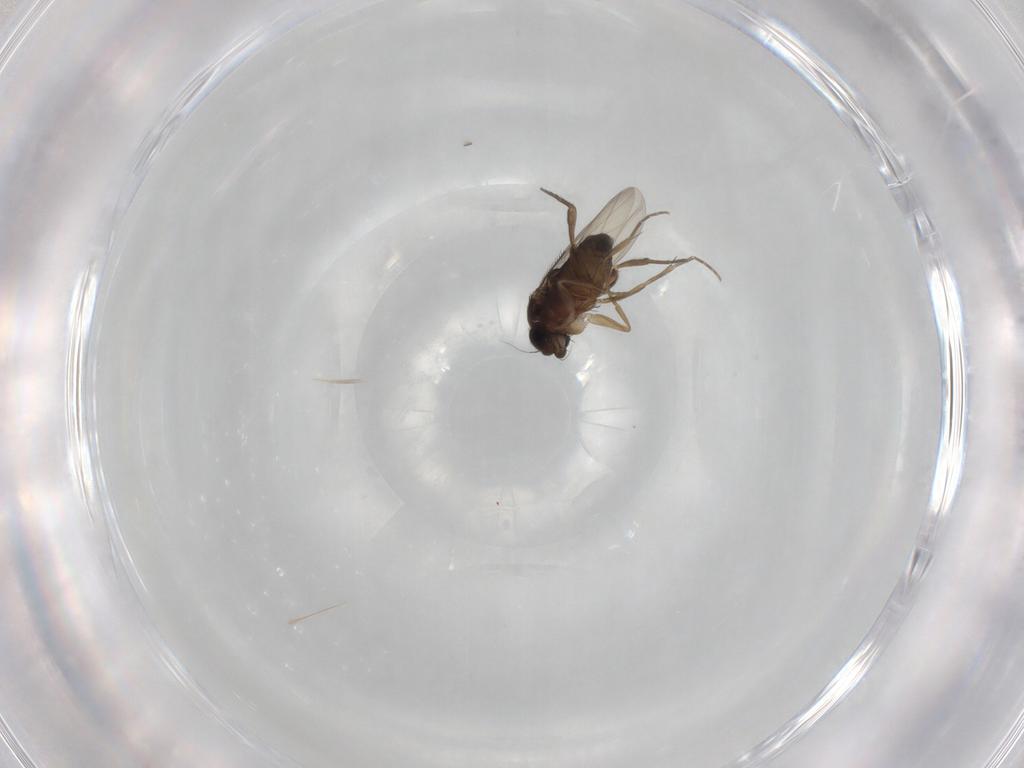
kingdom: Animalia
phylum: Arthropoda
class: Insecta
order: Diptera
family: Phoridae
